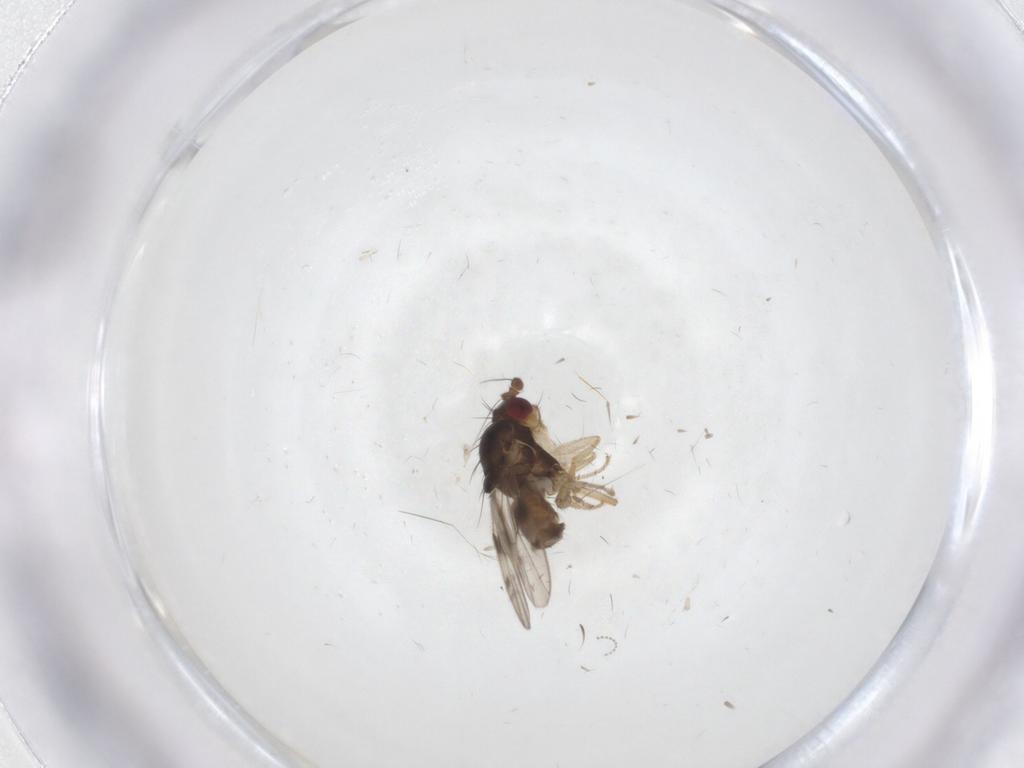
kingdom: Animalia
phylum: Arthropoda
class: Insecta
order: Diptera
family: Sphaeroceridae
